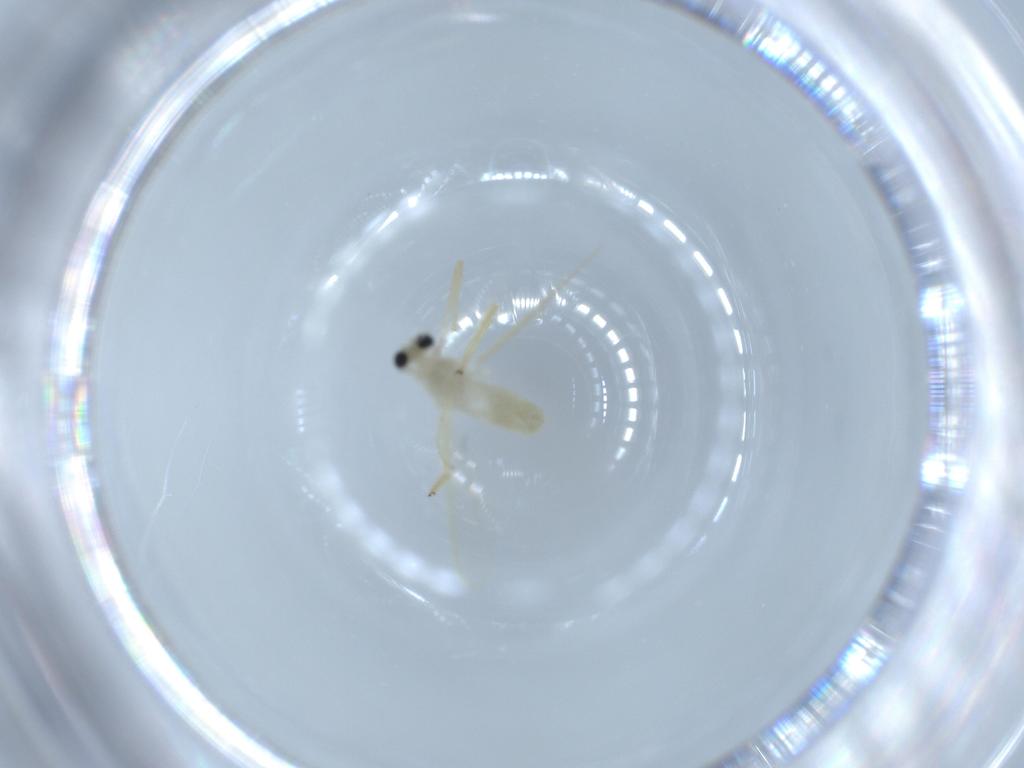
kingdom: Animalia
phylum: Arthropoda
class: Insecta
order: Diptera
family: Chironomidae
